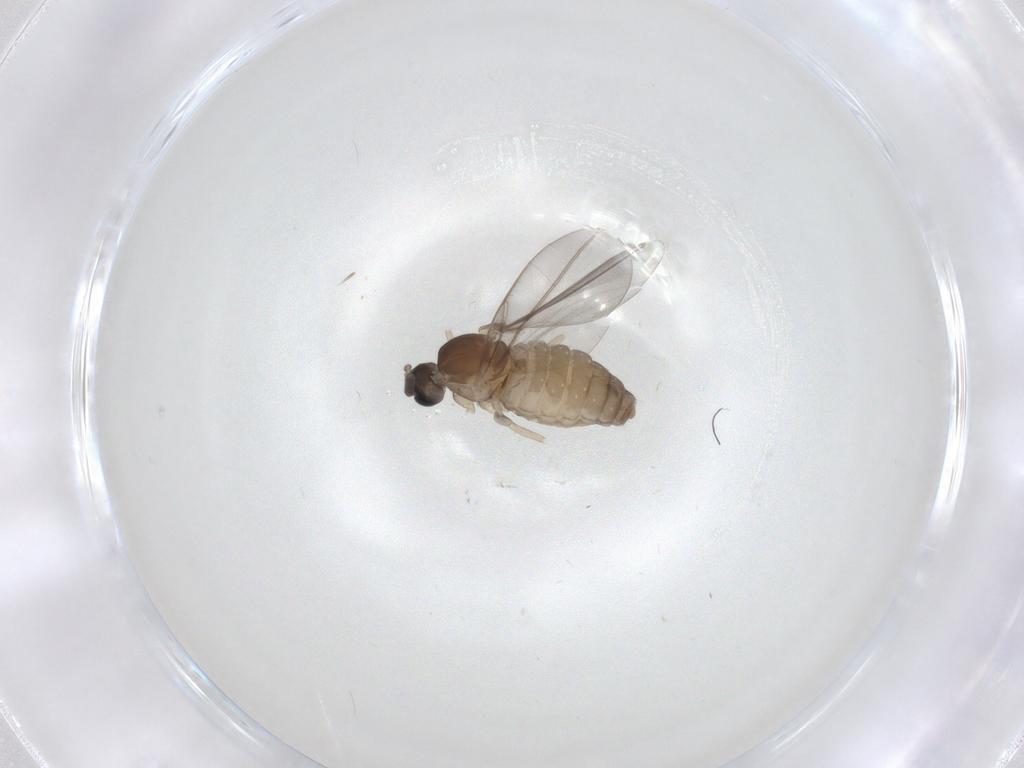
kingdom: Animalia
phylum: Arthropoda
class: Insecta
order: Diptera
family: Cecidomyiidae
